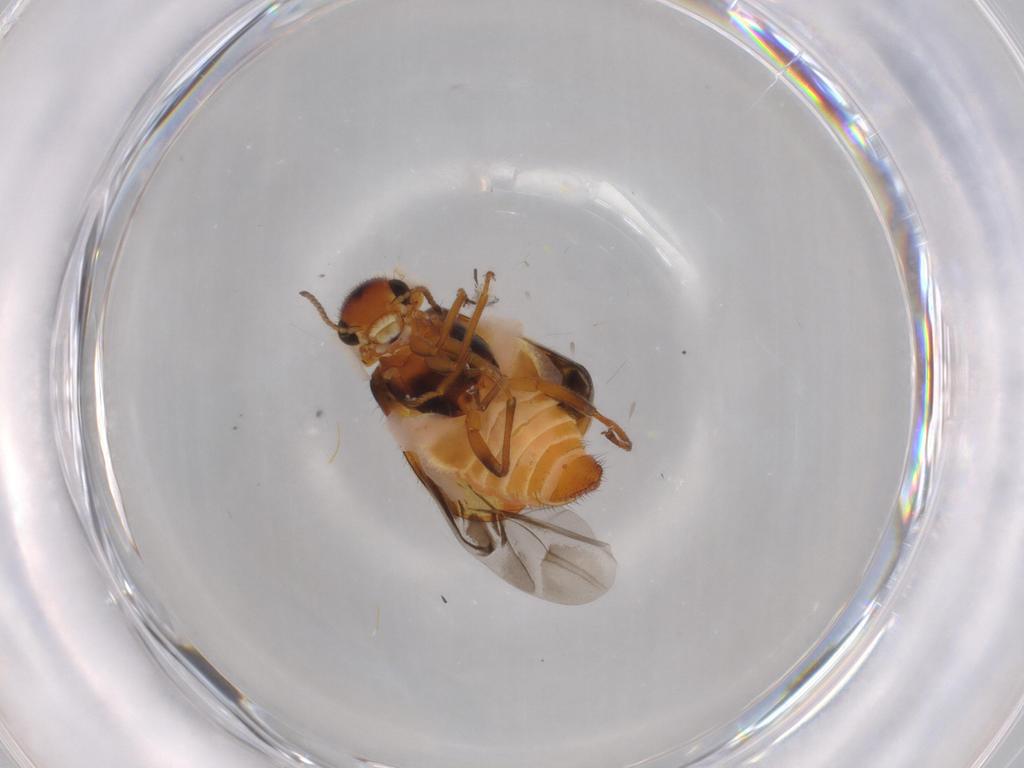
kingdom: Animalia
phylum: Arthropoda
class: Insecta
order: Coleoptera
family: Melyridae
